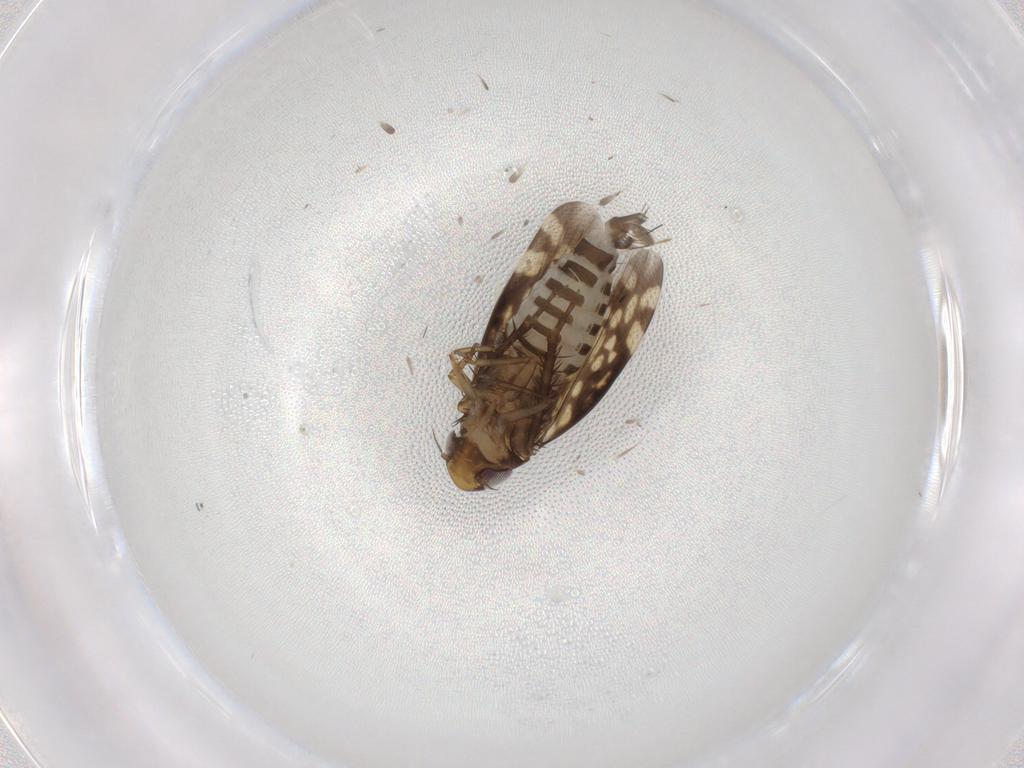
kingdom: Animalia
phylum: Arthropoda
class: Insecta
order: Hemiptera
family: Cicadellidae
